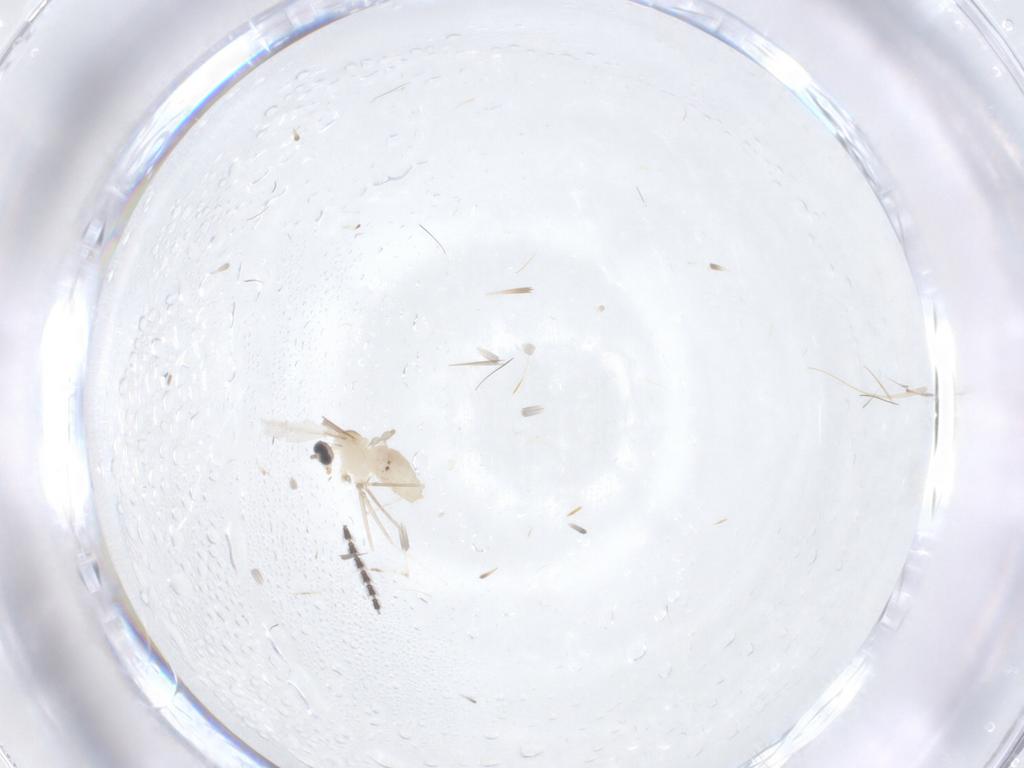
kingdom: Animalia
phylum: Arthropoda
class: Insecta
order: Diptera
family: Cecidomyiidae
